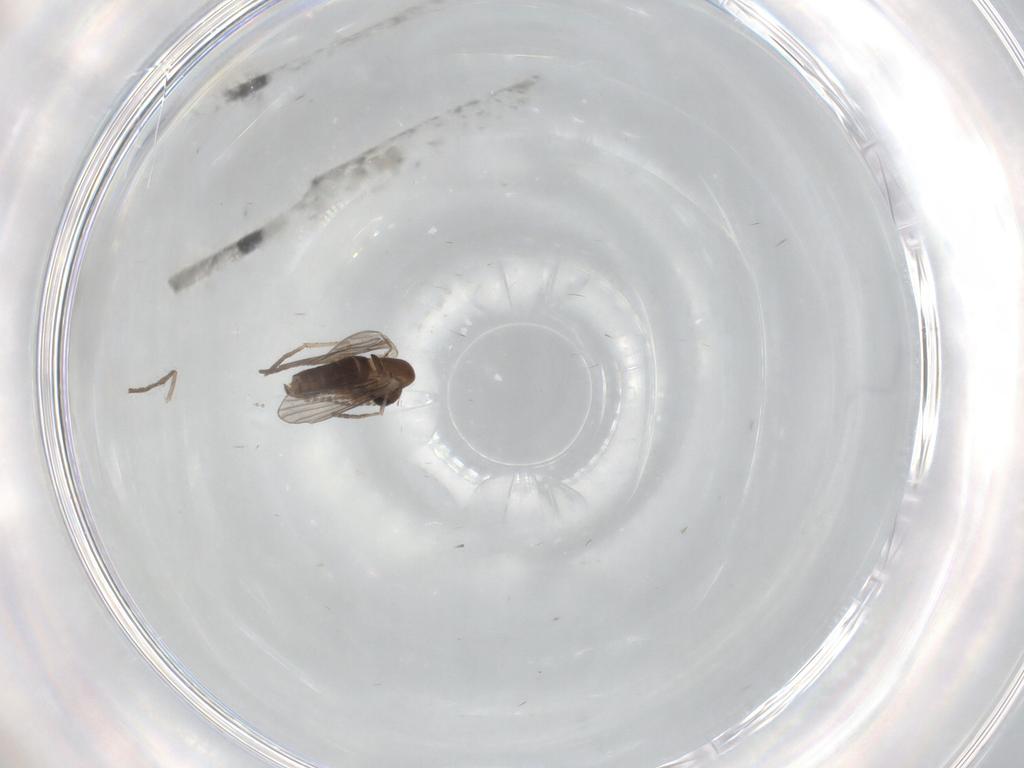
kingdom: Animalia
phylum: Arthropoda
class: Insecta
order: Diptera
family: Psychodidae
